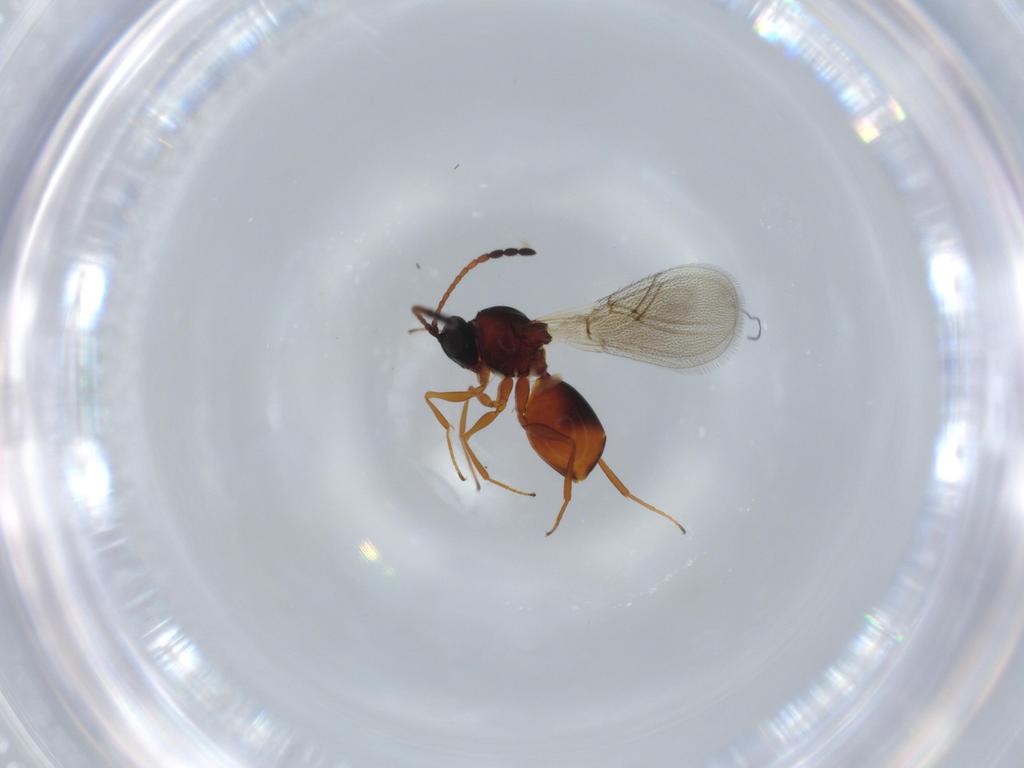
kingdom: Animalia
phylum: Arthropoda
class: Insecta
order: Hymenoptera
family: Figitidae
